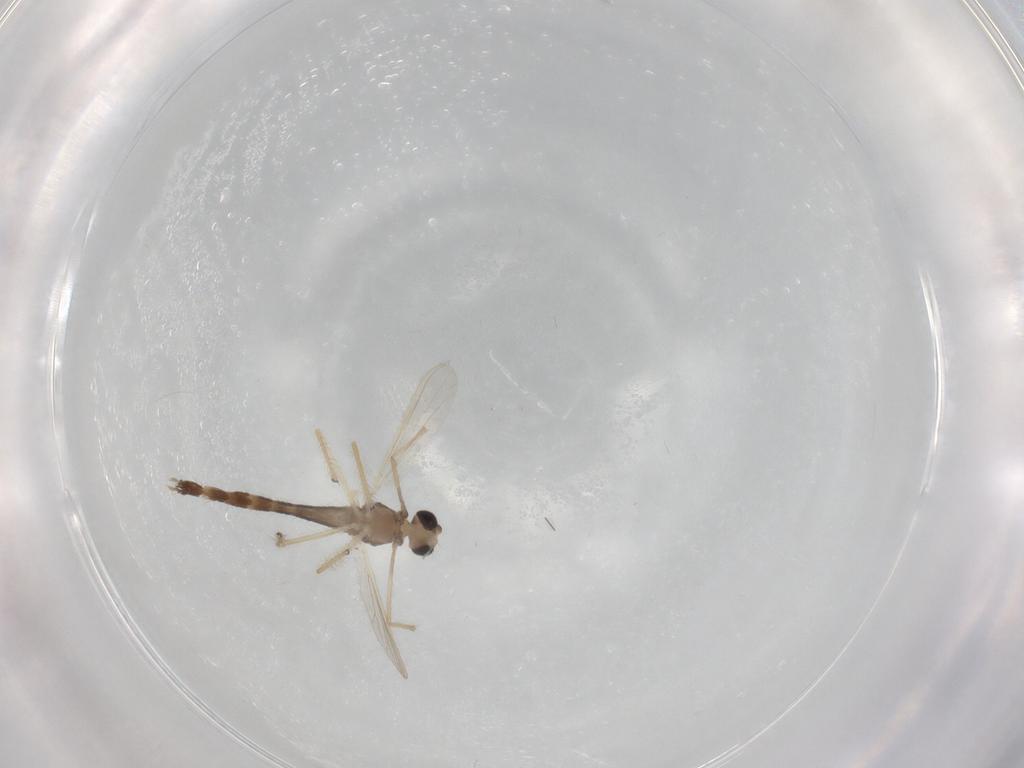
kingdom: Animalia
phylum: Arthropoda
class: Insecta
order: Diptera
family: Chironomidae
